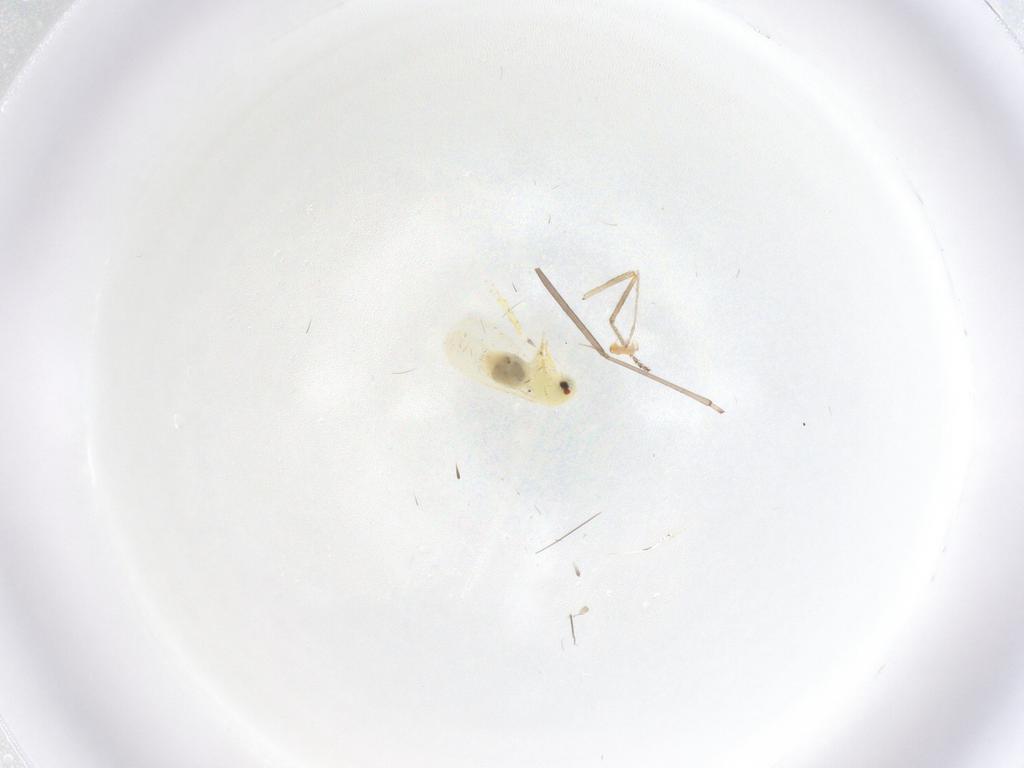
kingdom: Animalia
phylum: Arthropoda
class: Insecta
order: Hemiptera
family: Aleyrodidae
